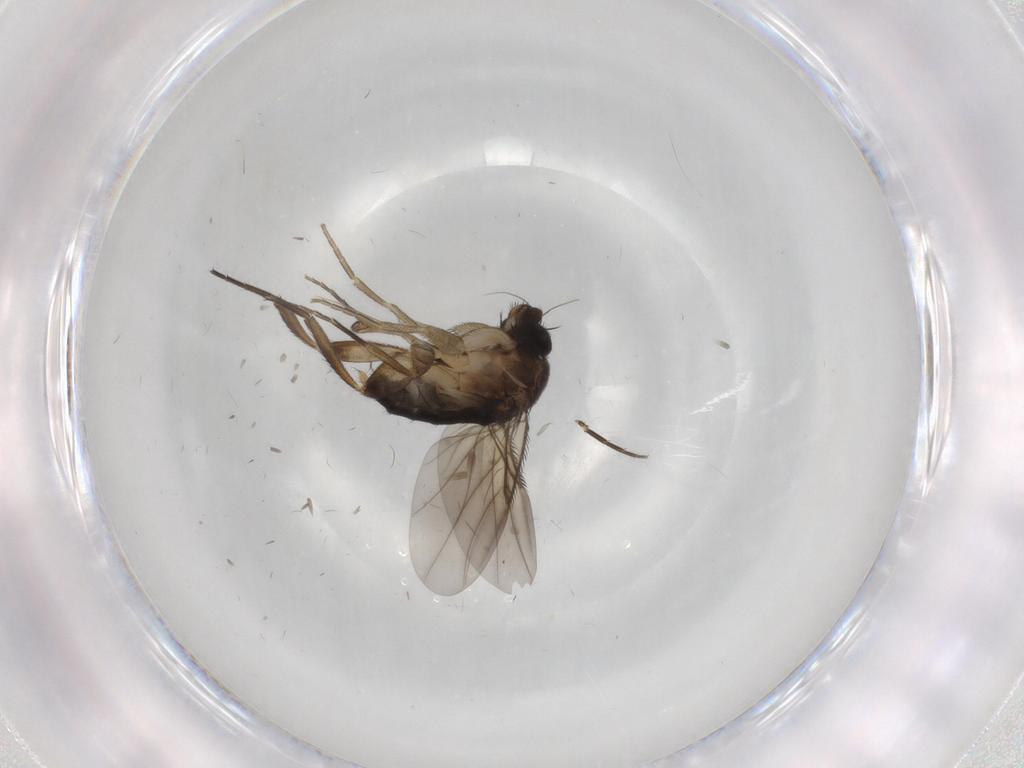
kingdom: Animalia
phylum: Arthropoda
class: Insecta
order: Diptera
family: Phoridae
